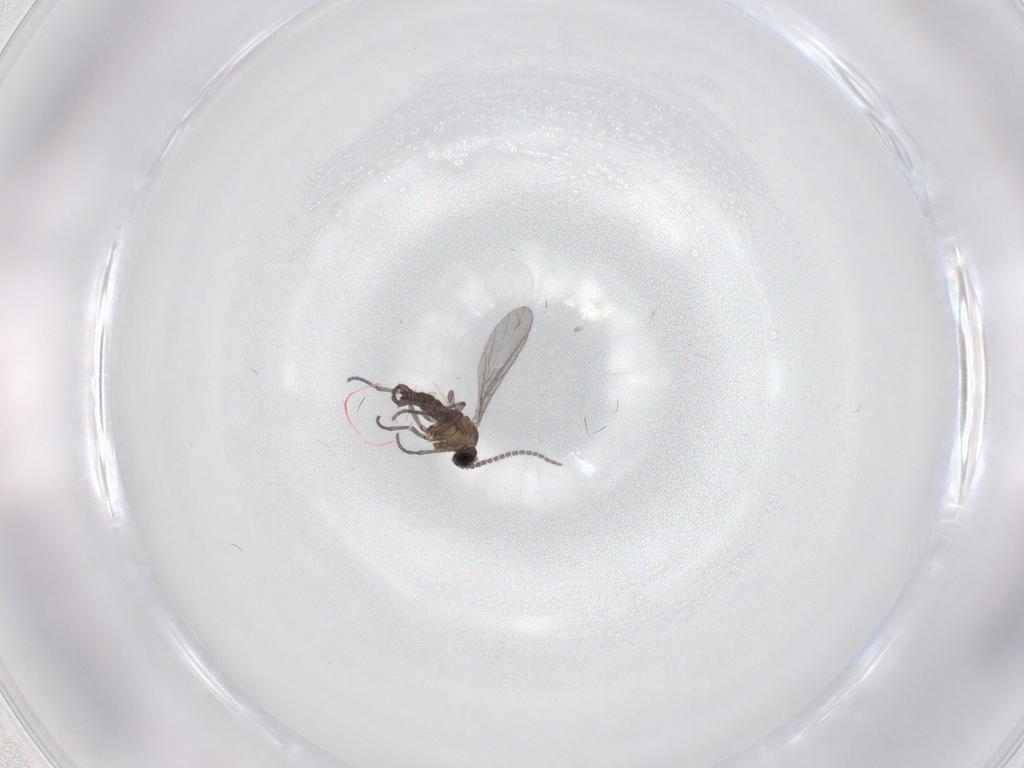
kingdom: Animalia
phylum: Arthropoda
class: Insecta
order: Diptera
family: Sciaridae
